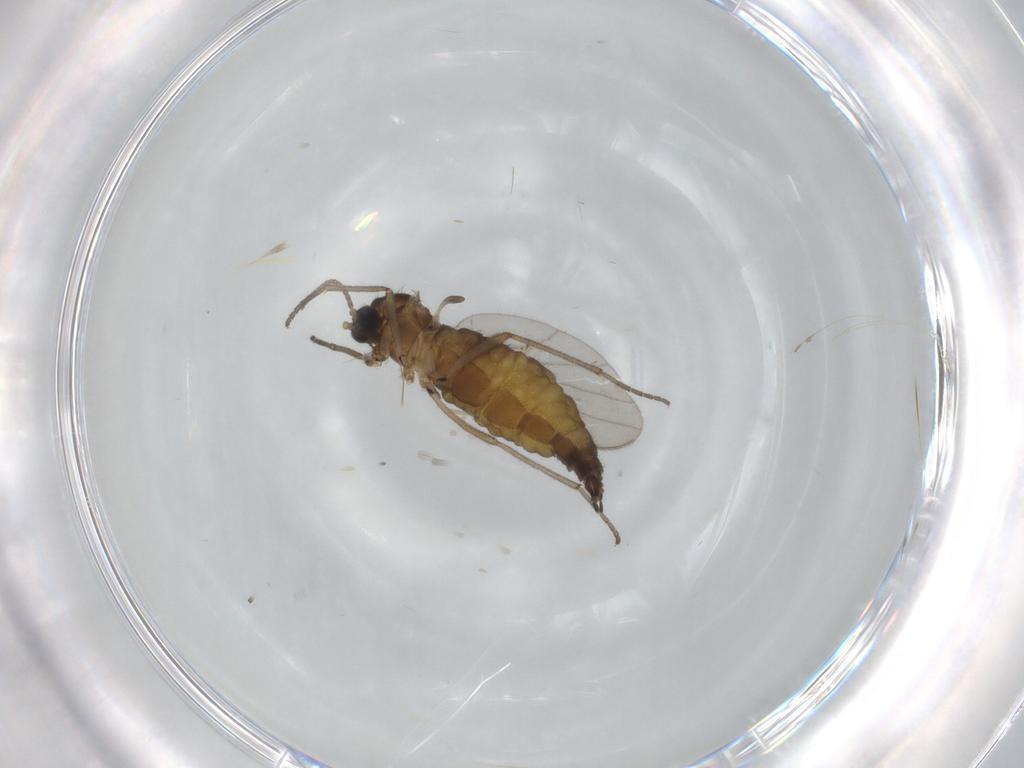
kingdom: Animalia
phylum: Arthropoda
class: Insecta
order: Diptera
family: Sciaridae
